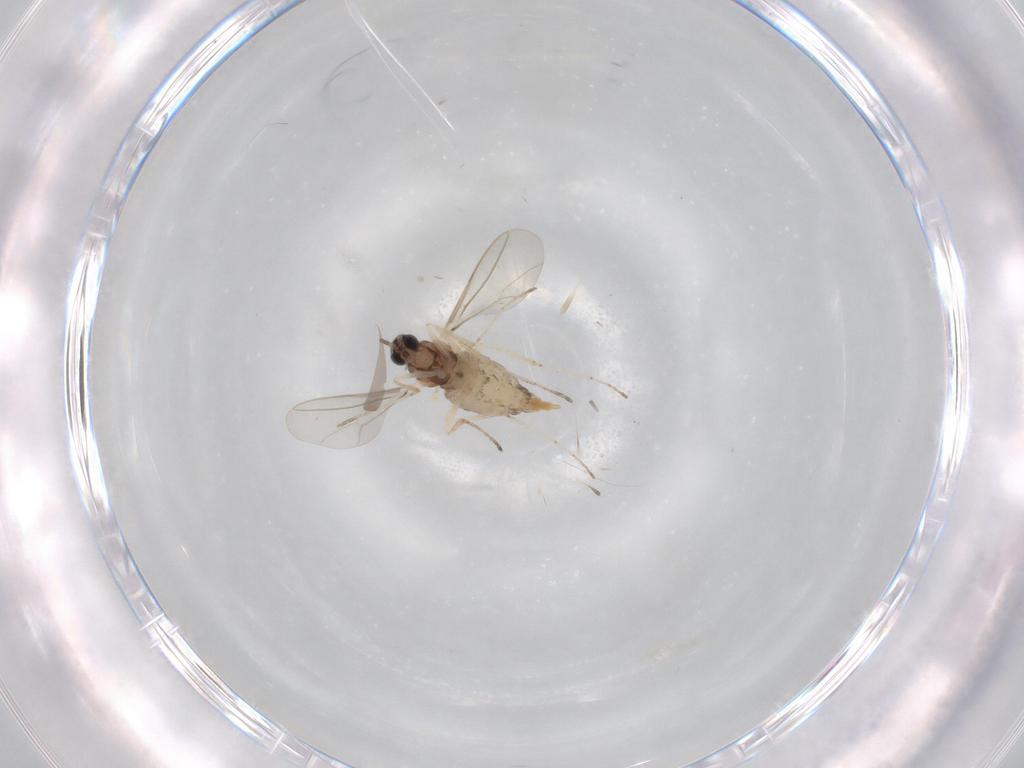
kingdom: Animalia
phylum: Arthropoda
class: Insecta
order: Diptera
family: Cecidomyiidae
